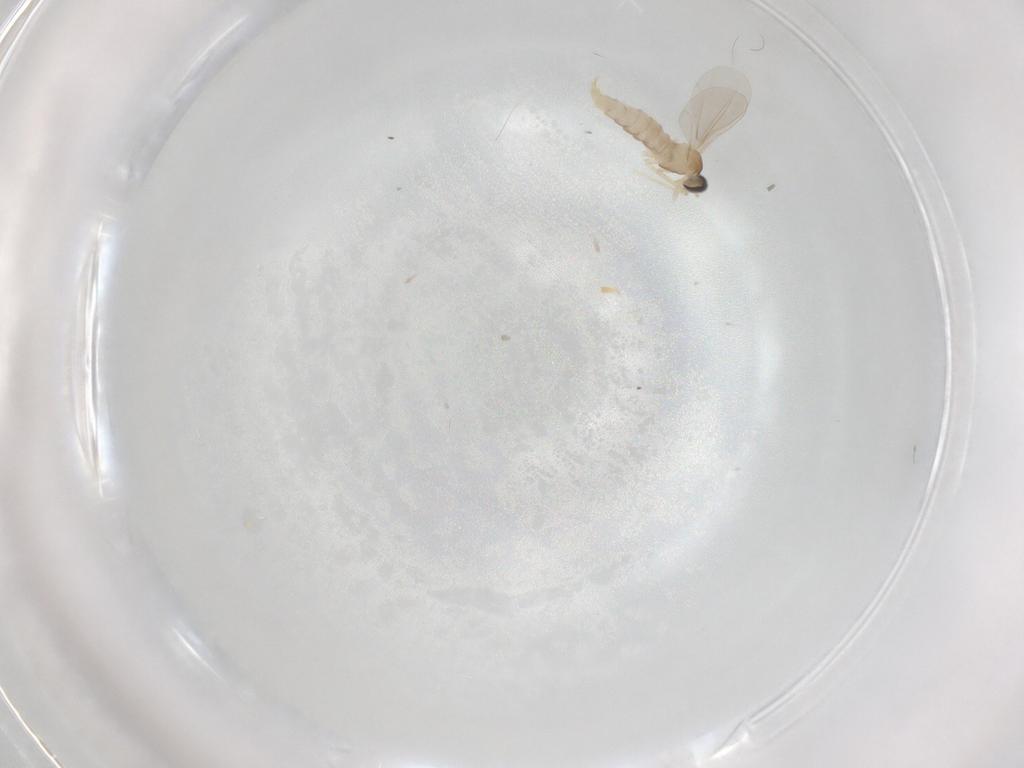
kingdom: Animalia
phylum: Arthropoda
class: Insecta
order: Diptera
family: Cecidomyiidae
